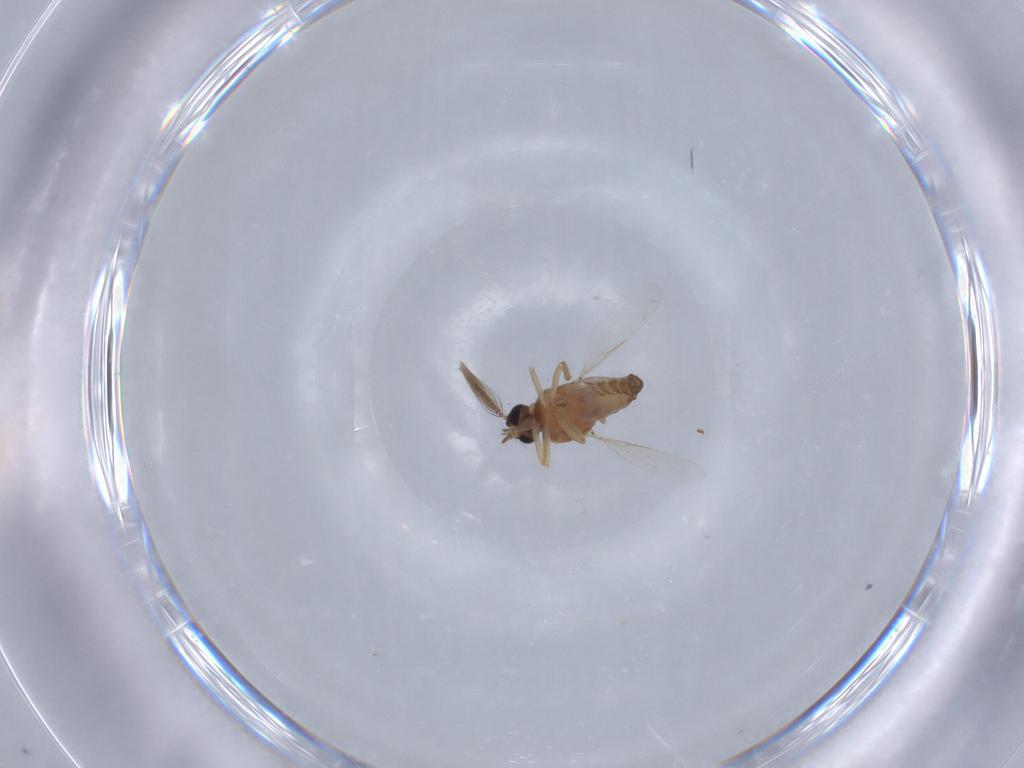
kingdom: Animalia
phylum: Arthropoda
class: Insecta
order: Diptera
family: Ceratopogonidae
